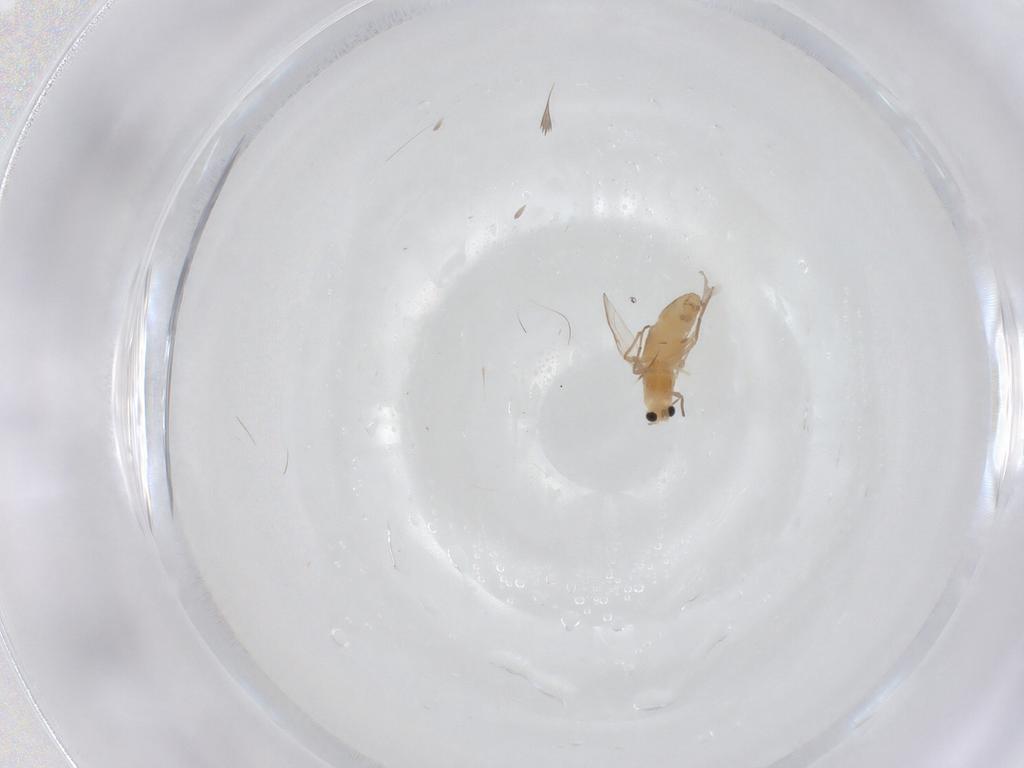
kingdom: Animalia
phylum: Arthropoda
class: Insecta
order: Diptera
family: Chironomidae
